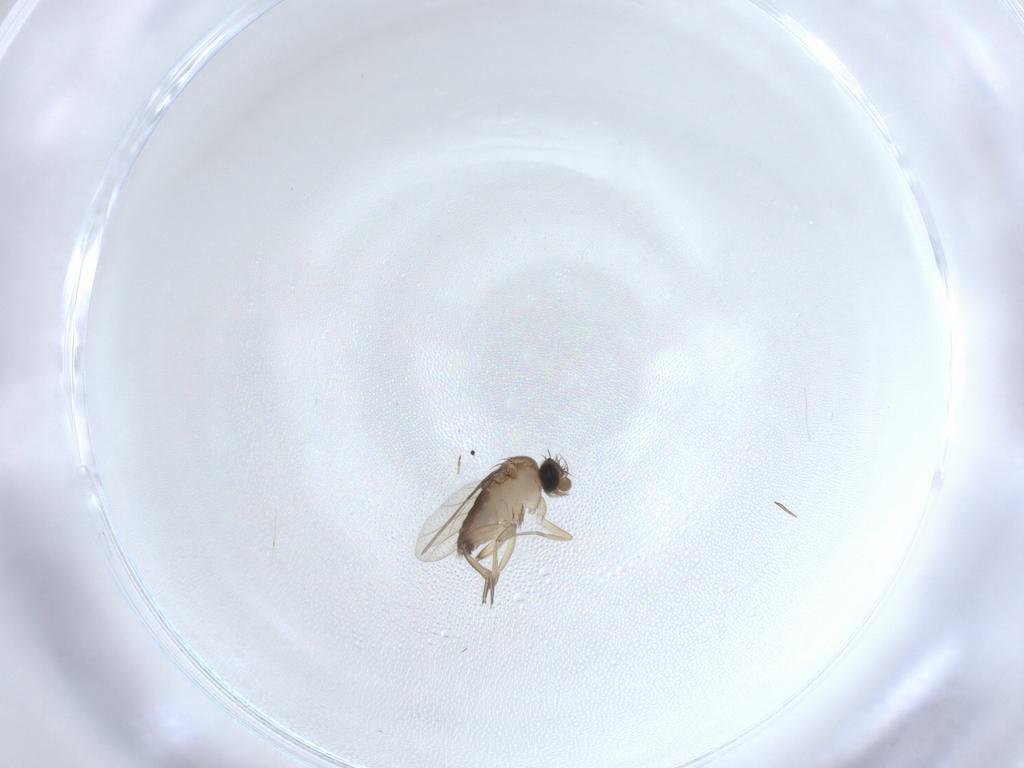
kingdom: Animalia
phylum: Arthropoda
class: Insecta
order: Diptera
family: Phoridae
